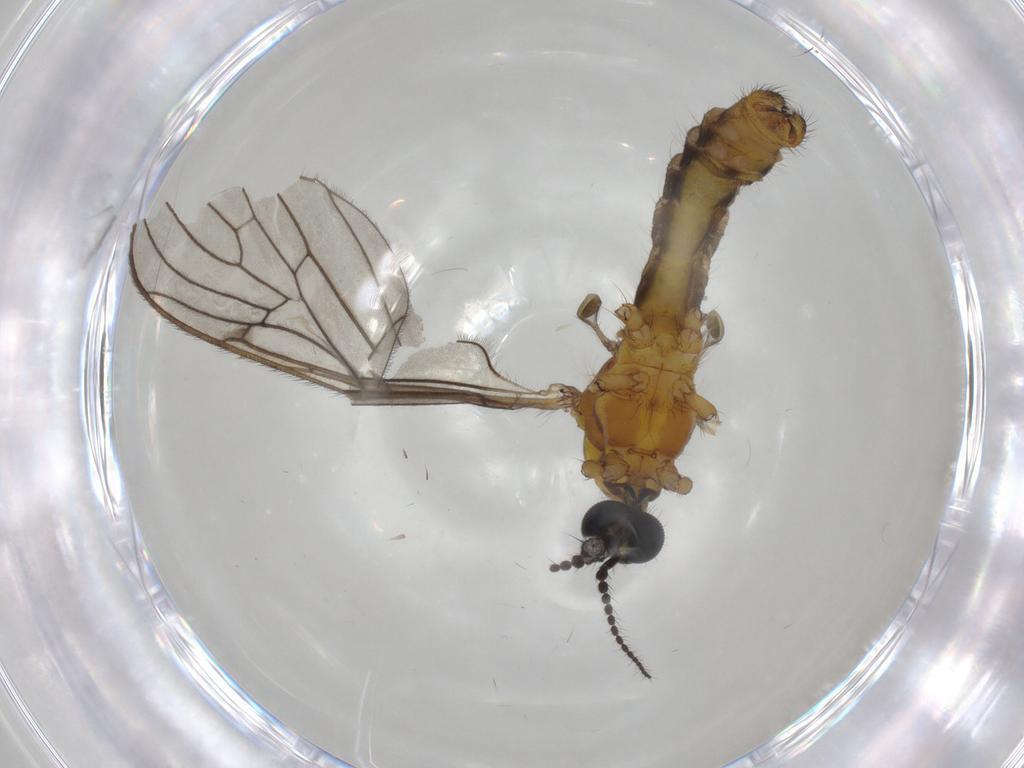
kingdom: Animalia
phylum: Arthropoda
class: Insecta
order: Diptera
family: Limoniidae
